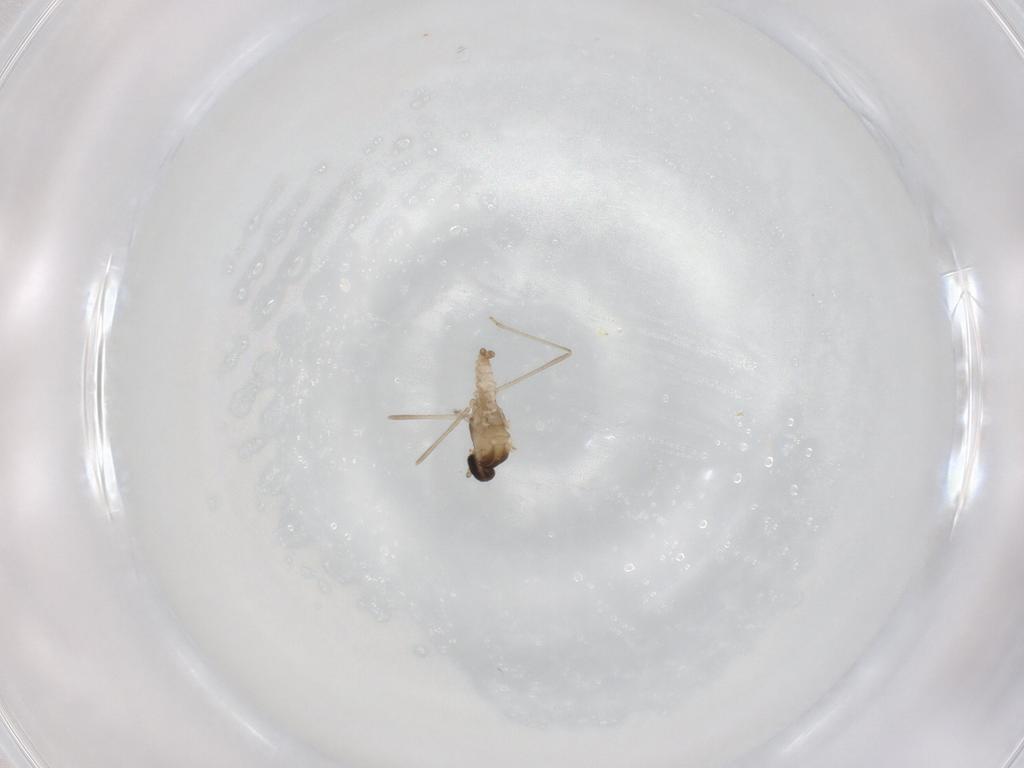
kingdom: Animalia
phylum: Arthropoda
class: Insecta
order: Diptera
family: Cecidomyiidae
